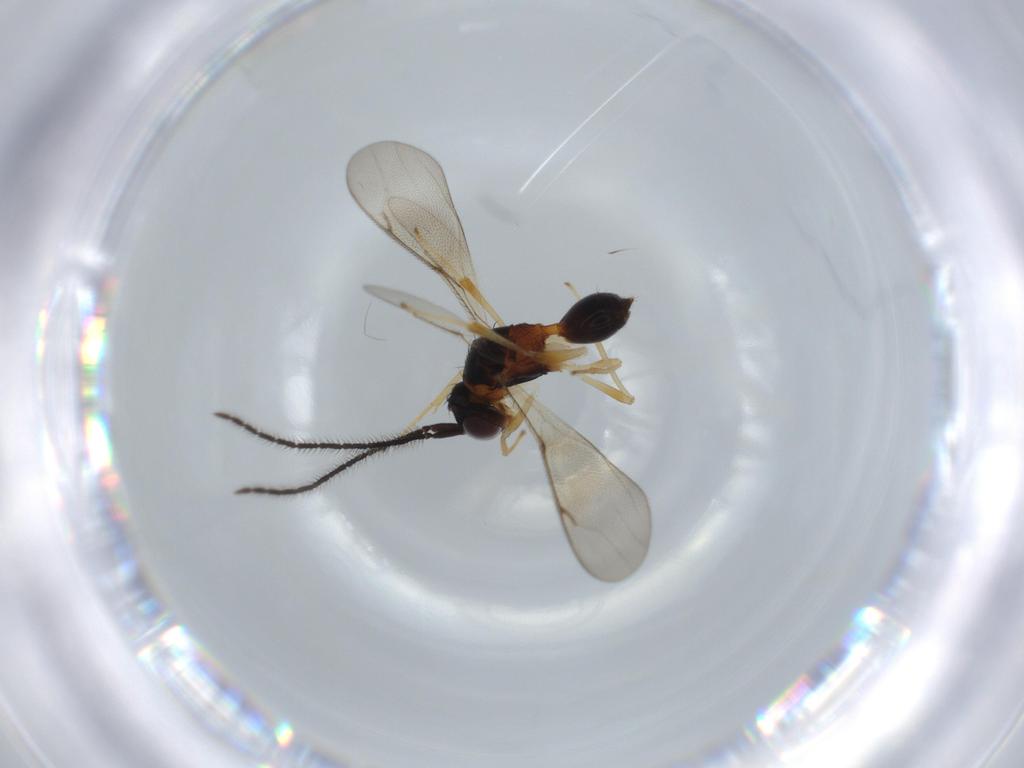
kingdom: Animalia
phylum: Arthropoda
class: Insecta
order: Hymenoptera
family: Diparidae
